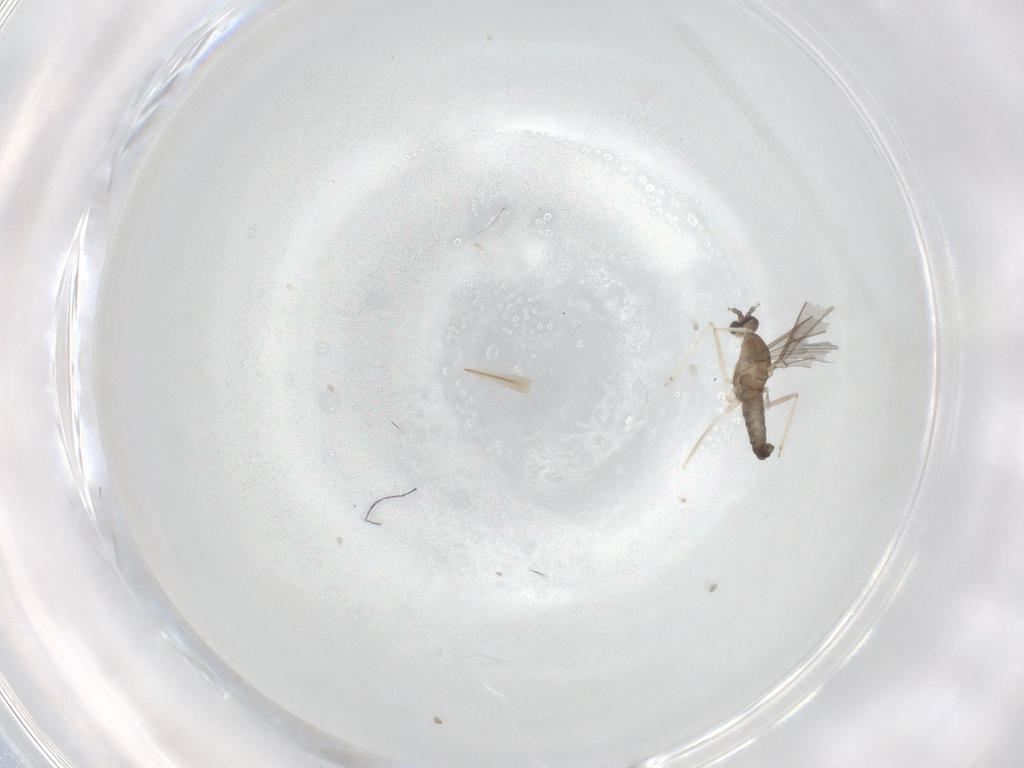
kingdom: Animalia
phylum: Arthropoda
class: Insecta
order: Diptera
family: Cecidomyiidae
